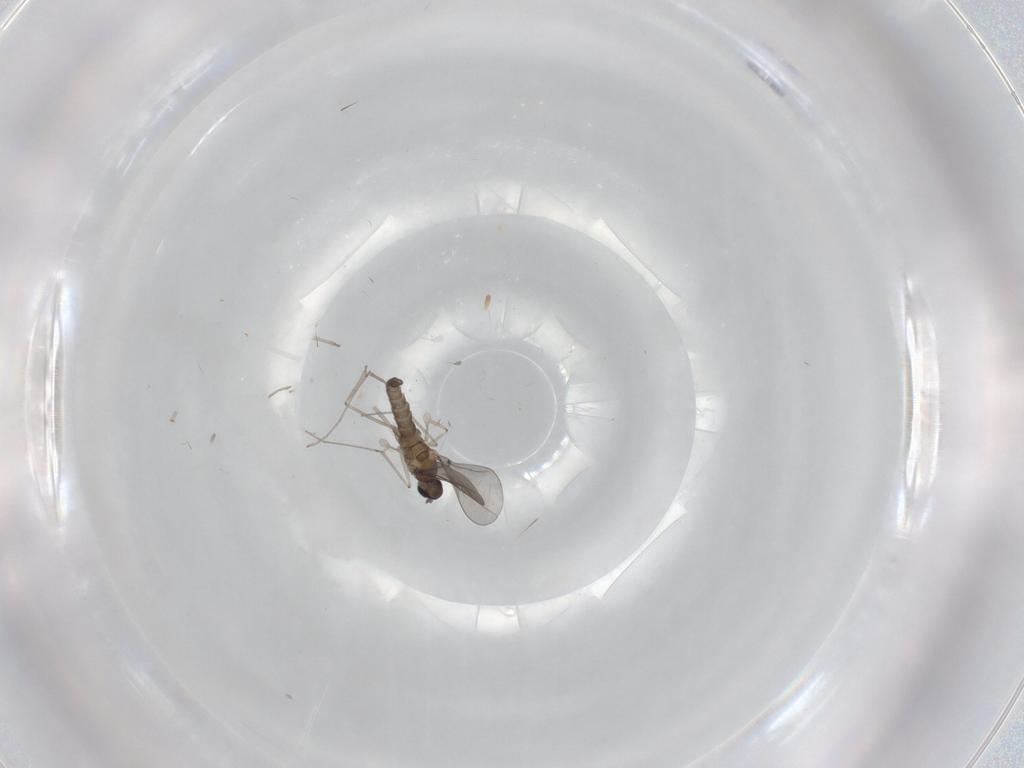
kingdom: Animalia
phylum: Arthropoda
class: Insecta
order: Diptera
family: Cecidomyiidae
